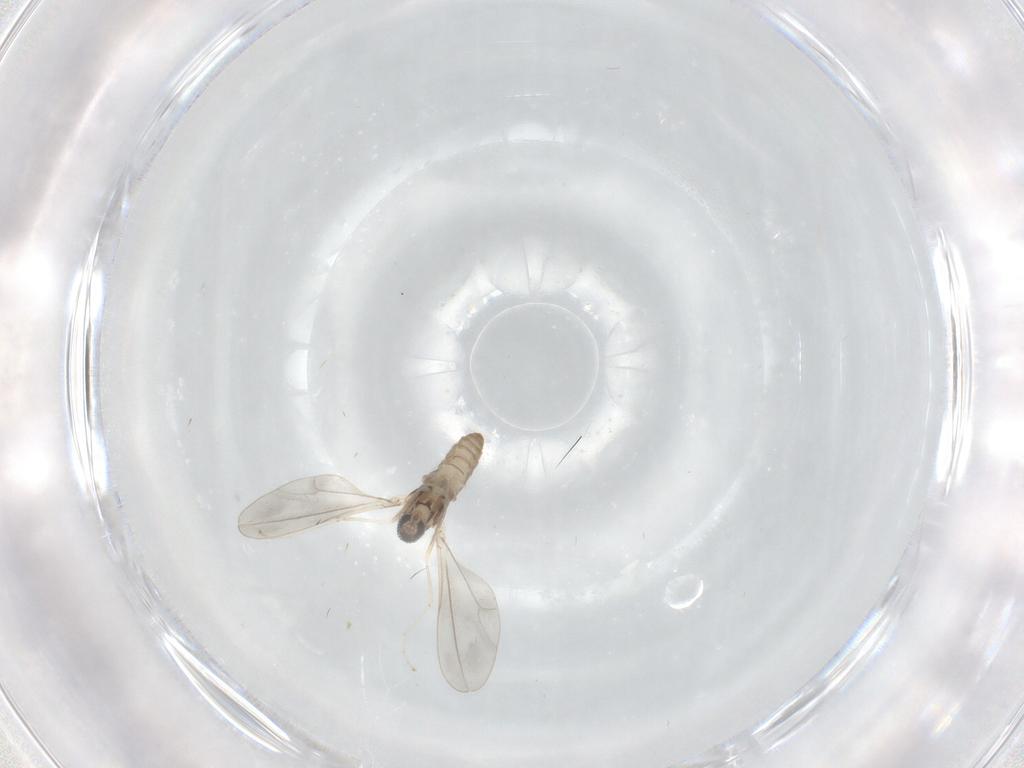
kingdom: Animalia
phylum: Arthropoda
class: Insecta
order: Diptera
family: Cecidomyiidae
